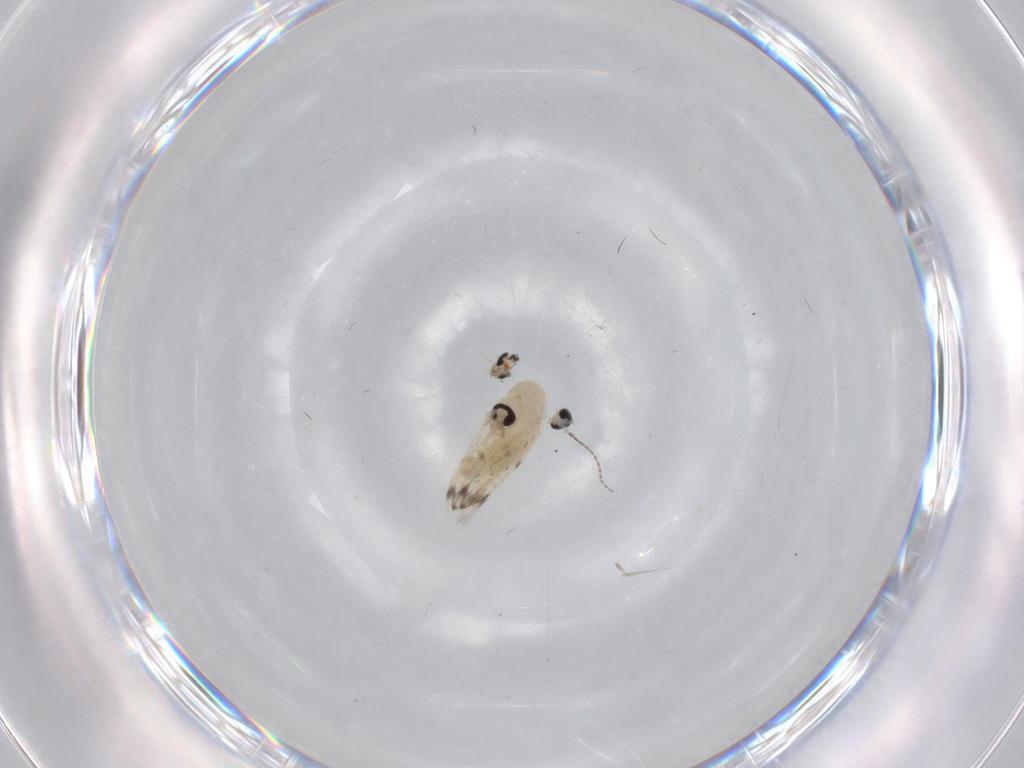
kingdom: Animalia
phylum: Arthropoda
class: Insecta
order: Diptera
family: Psychodidae
